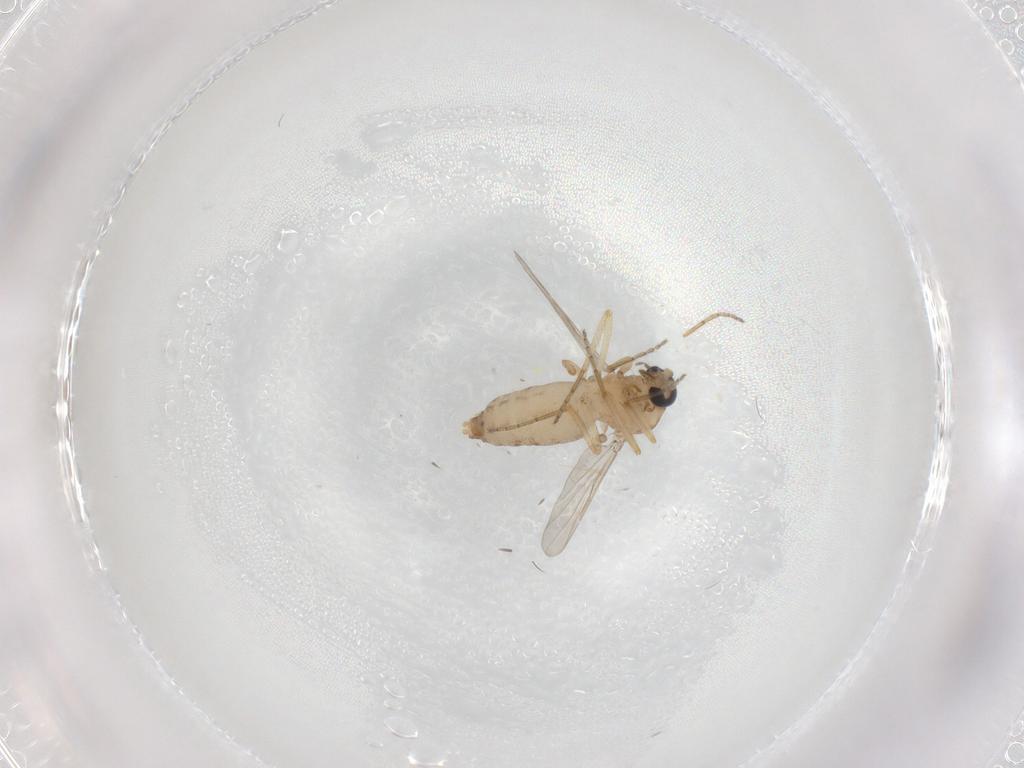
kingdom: Animalia
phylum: Arthropoda
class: Insecta
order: Diptera
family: Ceratopogonidae
